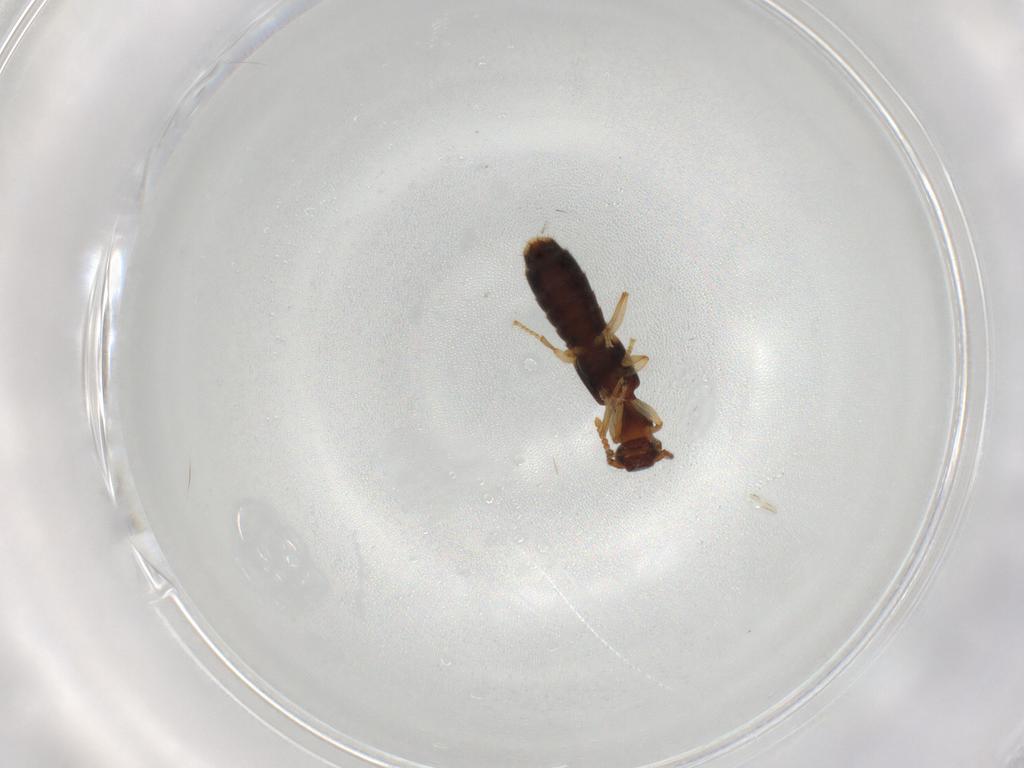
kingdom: Animalia
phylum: Arthropoda
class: Insecta
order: Coleoptera
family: Staphylinidae
